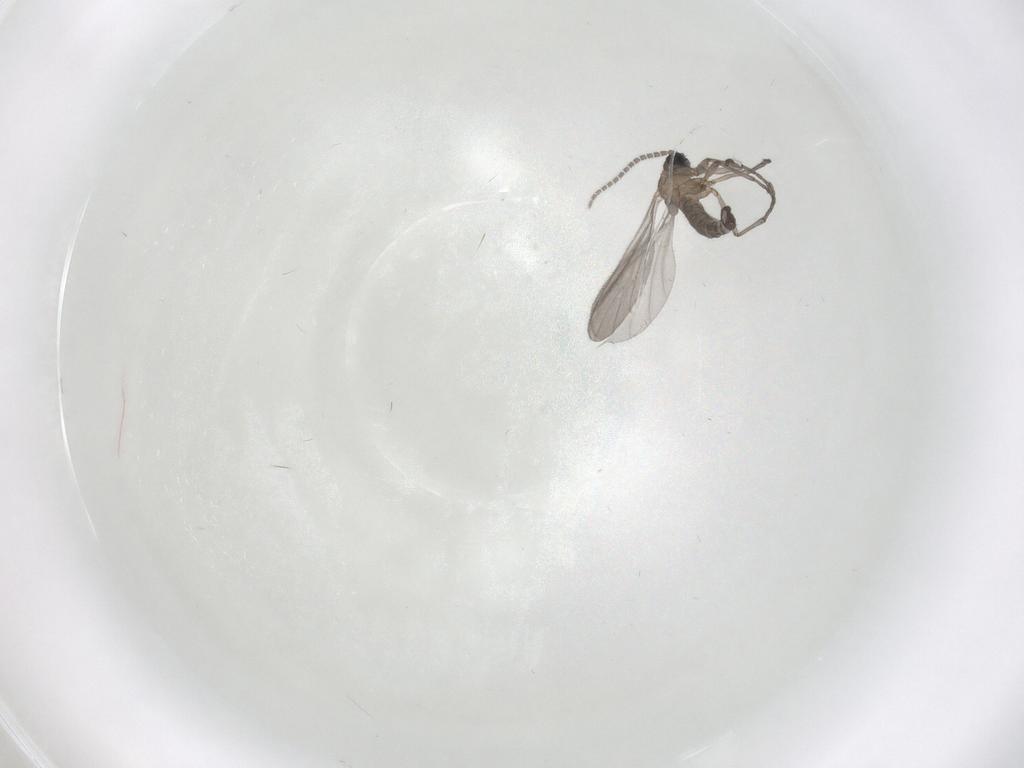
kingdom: Animalia
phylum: Arthropoda
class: Insecta
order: Diptera
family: Sciaridae
